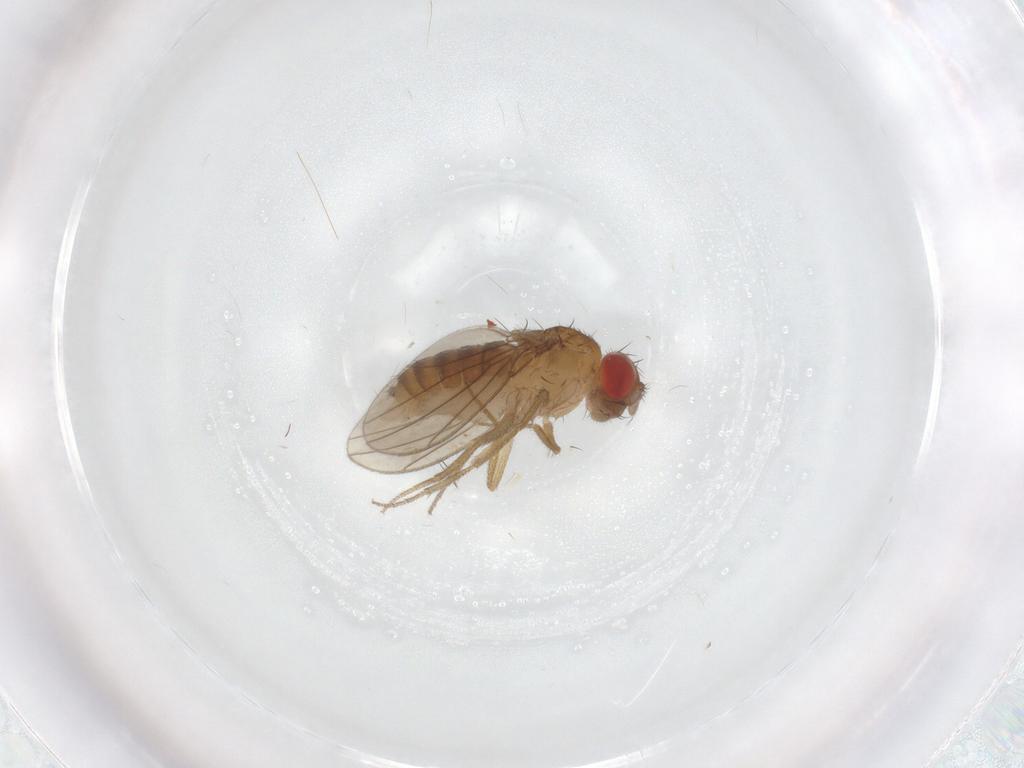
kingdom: Animalia
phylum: Arthropoda
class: Insecta
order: Diptera
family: Drosophilidae
